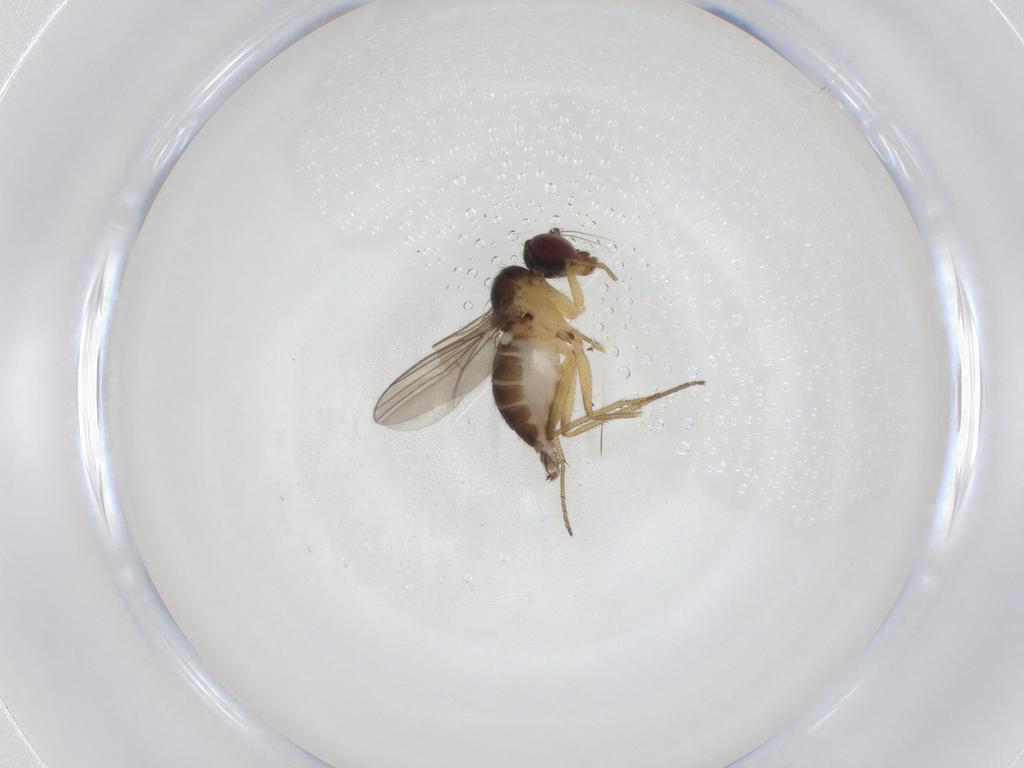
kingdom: Animalia
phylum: Arthropoda
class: Insecta
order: Diptera
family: Dolichopodidae
